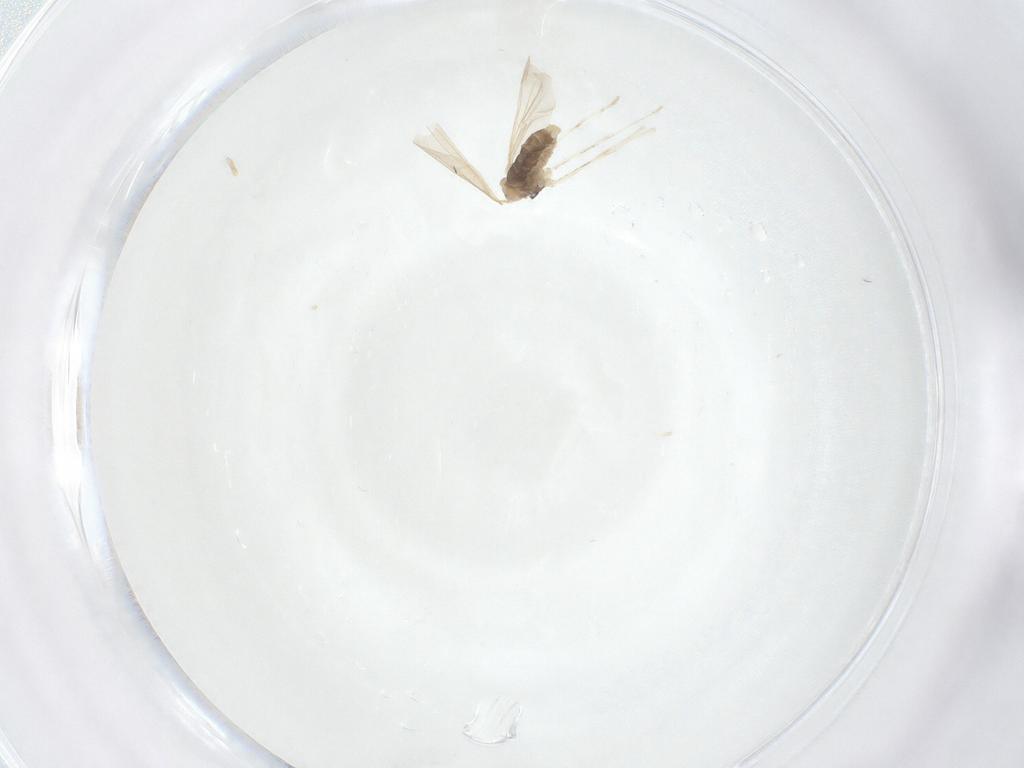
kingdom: Animalia
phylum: Arthropoda
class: Insecta
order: Diptera
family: Cecidomyiidae
